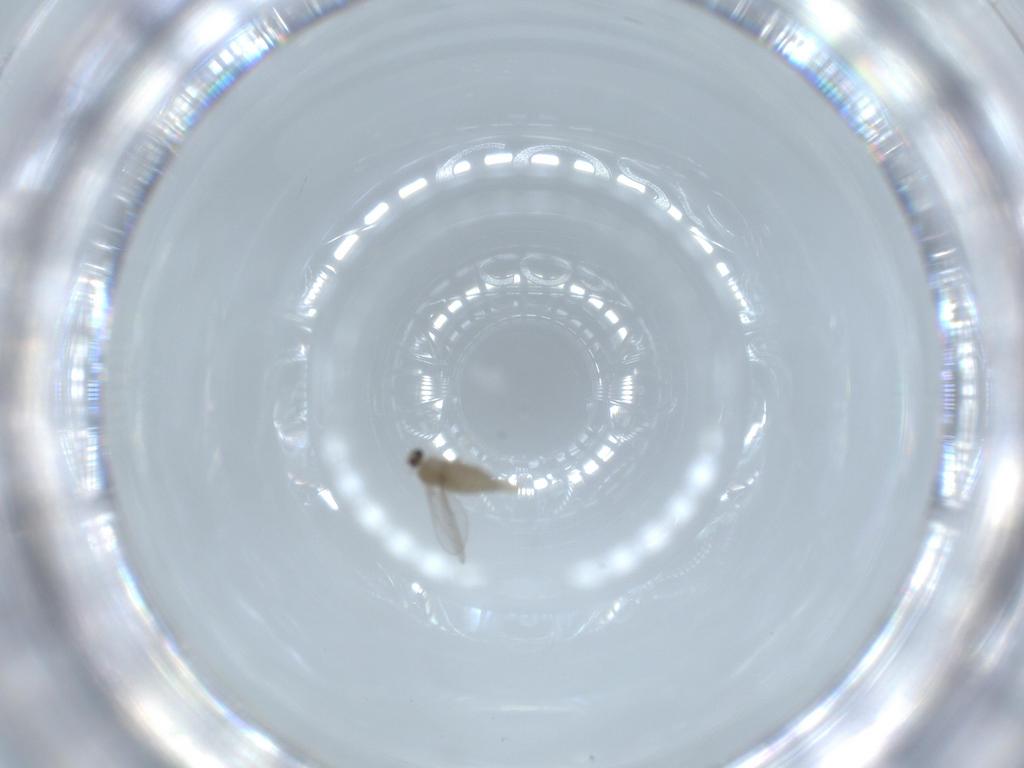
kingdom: Animalia
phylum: Arthropoda
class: Insecta
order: Diptera
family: Cecidomyiidae
